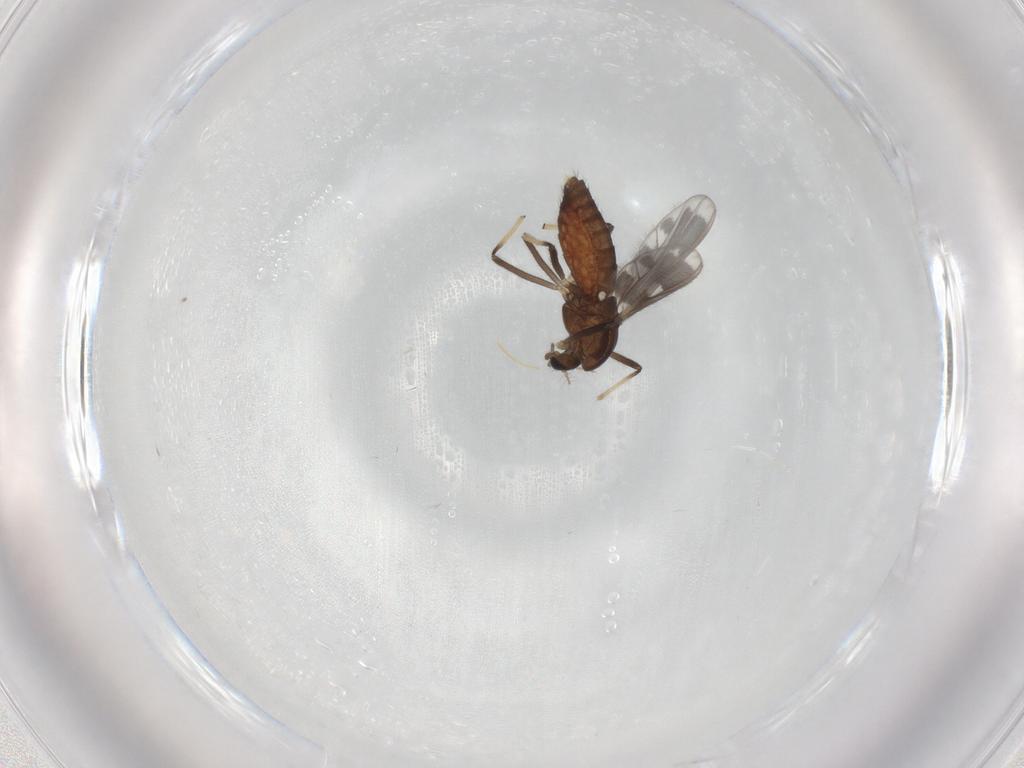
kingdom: Animalia
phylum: Arthropoda
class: Insecta
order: Diptera
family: Chironomidae
